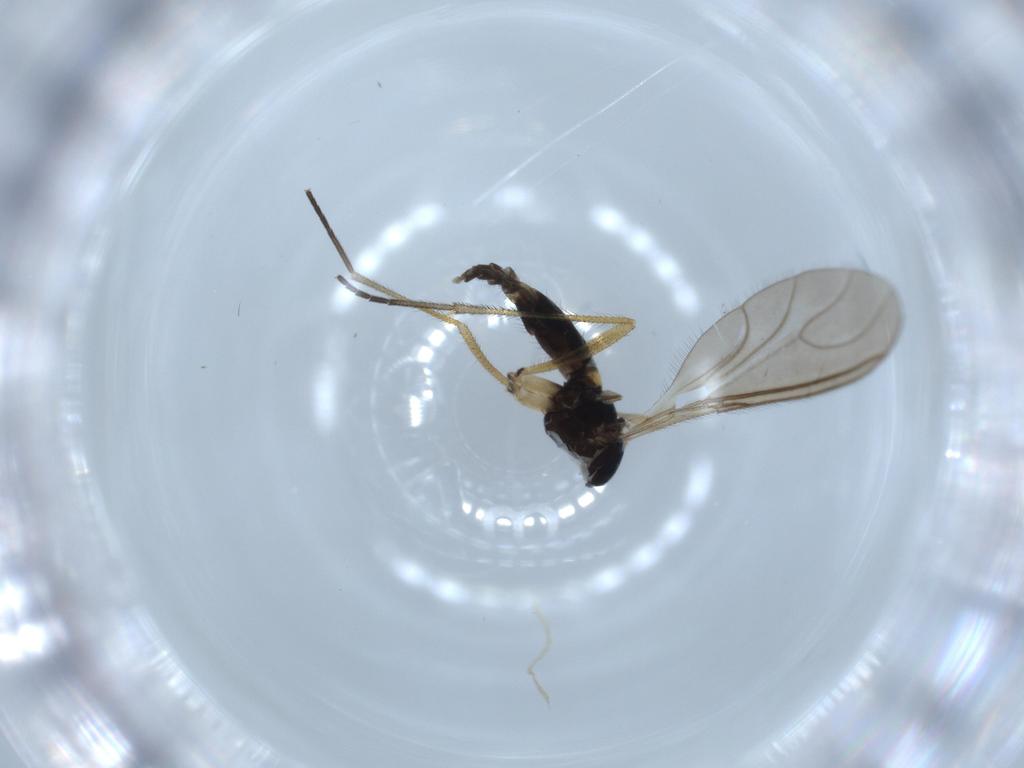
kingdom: Animalia
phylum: Arthropoda
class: Insecta
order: Diptera
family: Sciaridae
